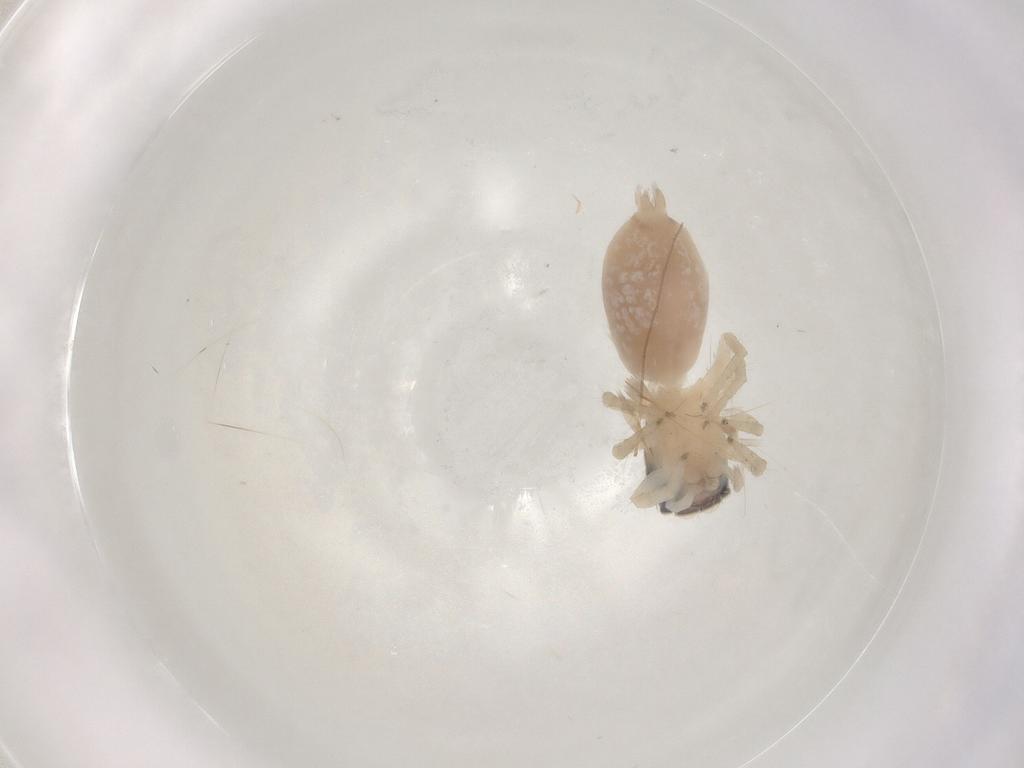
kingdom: Animalia
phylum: Arthropoda
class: Arachnida
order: Araneae
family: Salticidae
